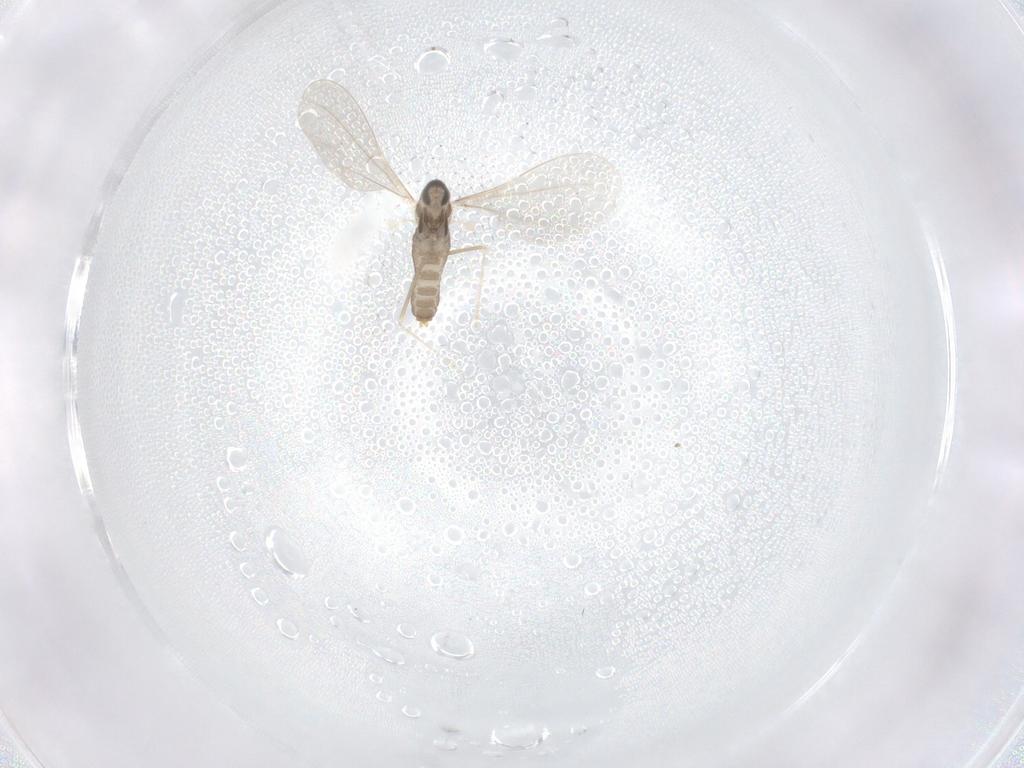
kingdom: Animalia
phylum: Arthropoda
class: Insecta
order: Diptera
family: Cecidomyiidae
